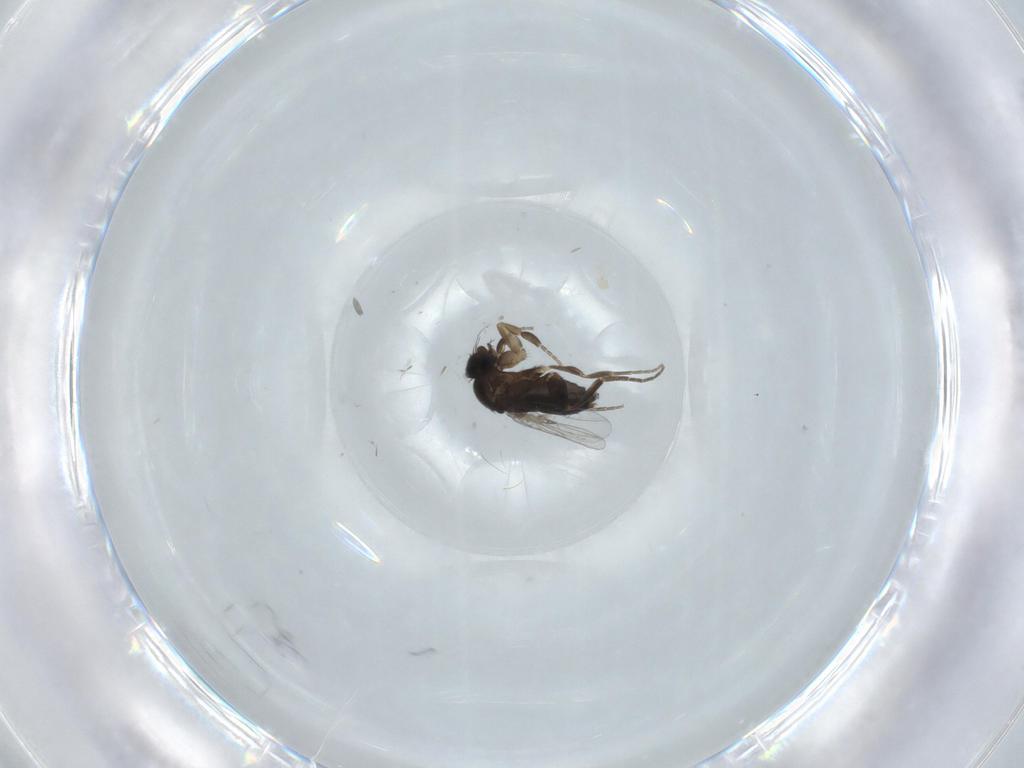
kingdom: Animalia
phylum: Arthropoda
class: Insecta
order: Diptera
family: Phoridae
